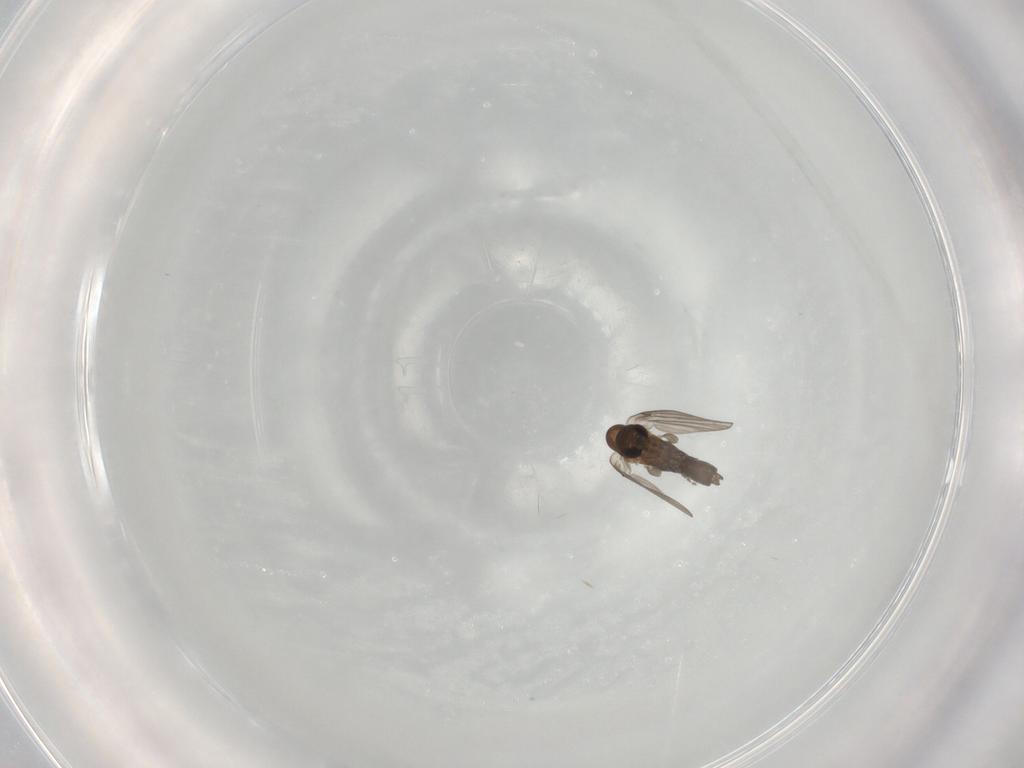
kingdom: Animalia
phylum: Arthropoda
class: Insecta
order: Diptera
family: Psychodidae
